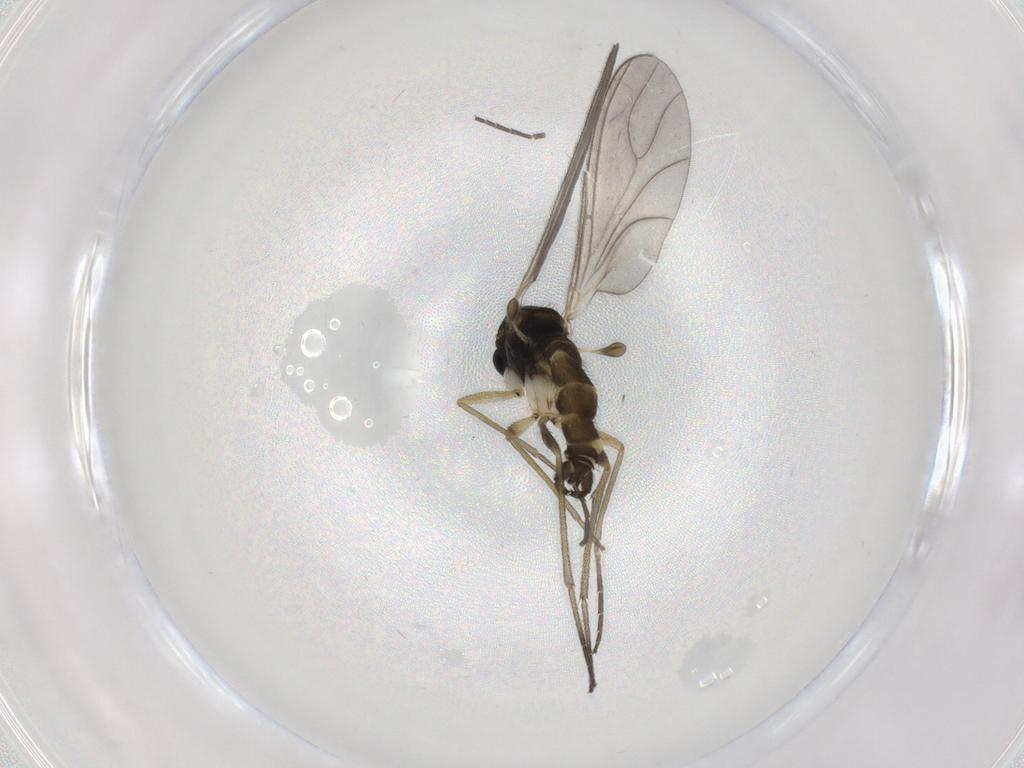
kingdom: Animalia
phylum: Arthropoda
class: Insecta
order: Diptera
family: Sciaridae
